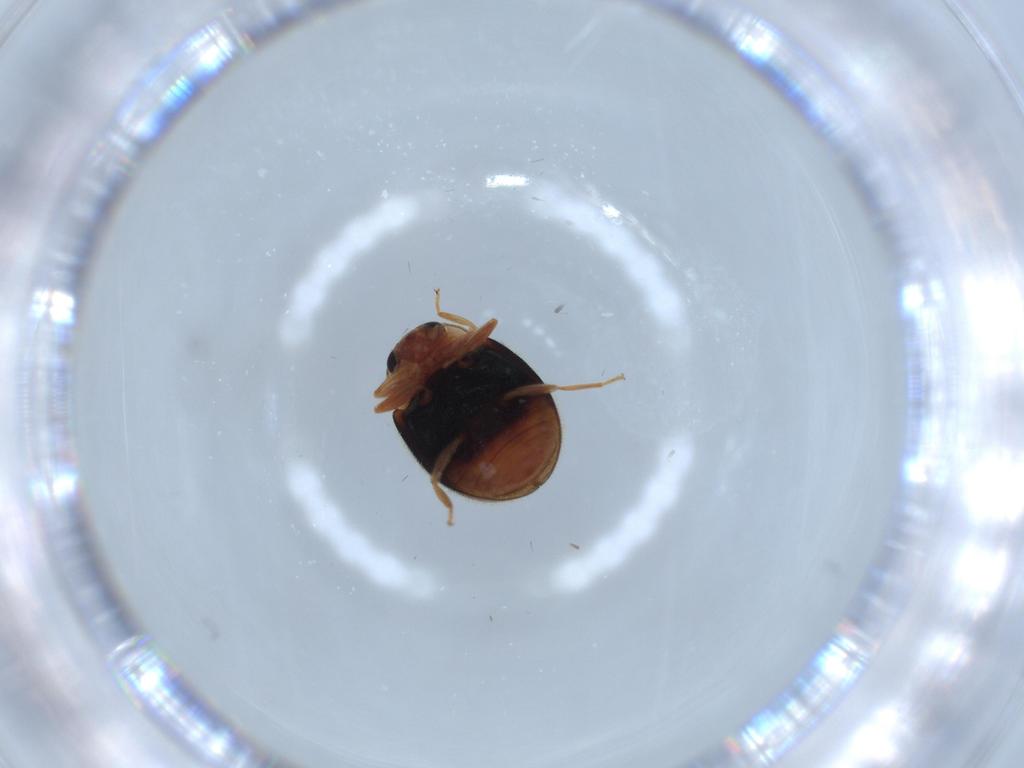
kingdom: Animalia
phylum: Arthropoda
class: Insecta
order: Coleoptera
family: Coccinellidae
